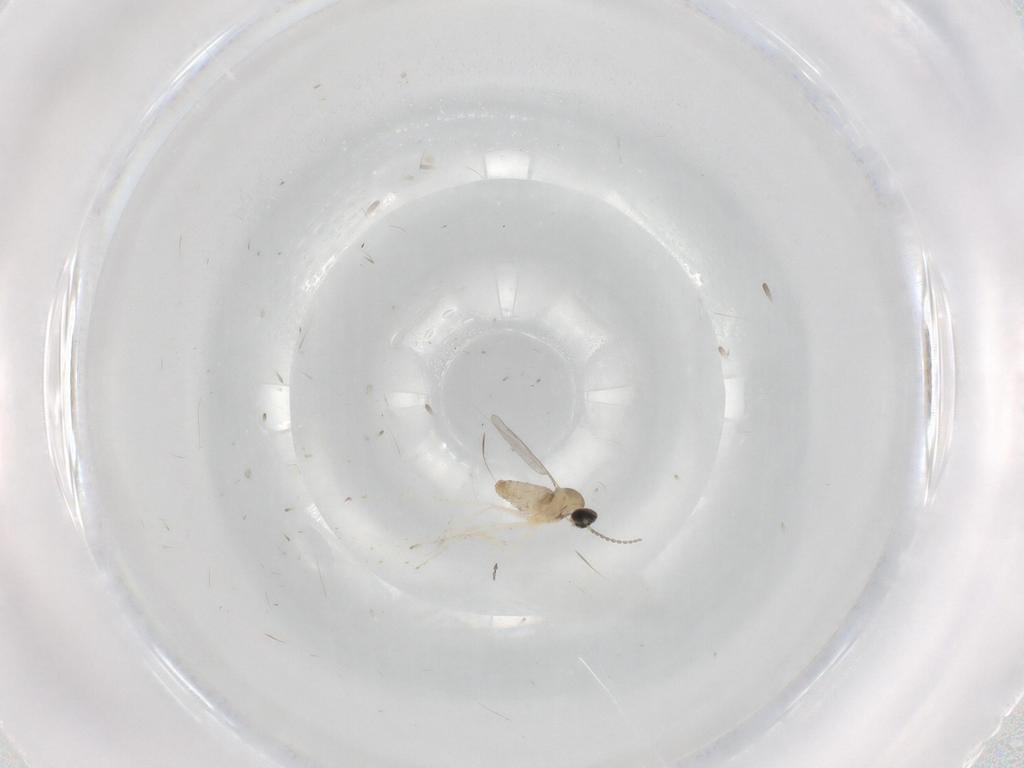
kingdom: Animalia
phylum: Arthropoda
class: Insecta
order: Diptera
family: Cecidomyiidae
